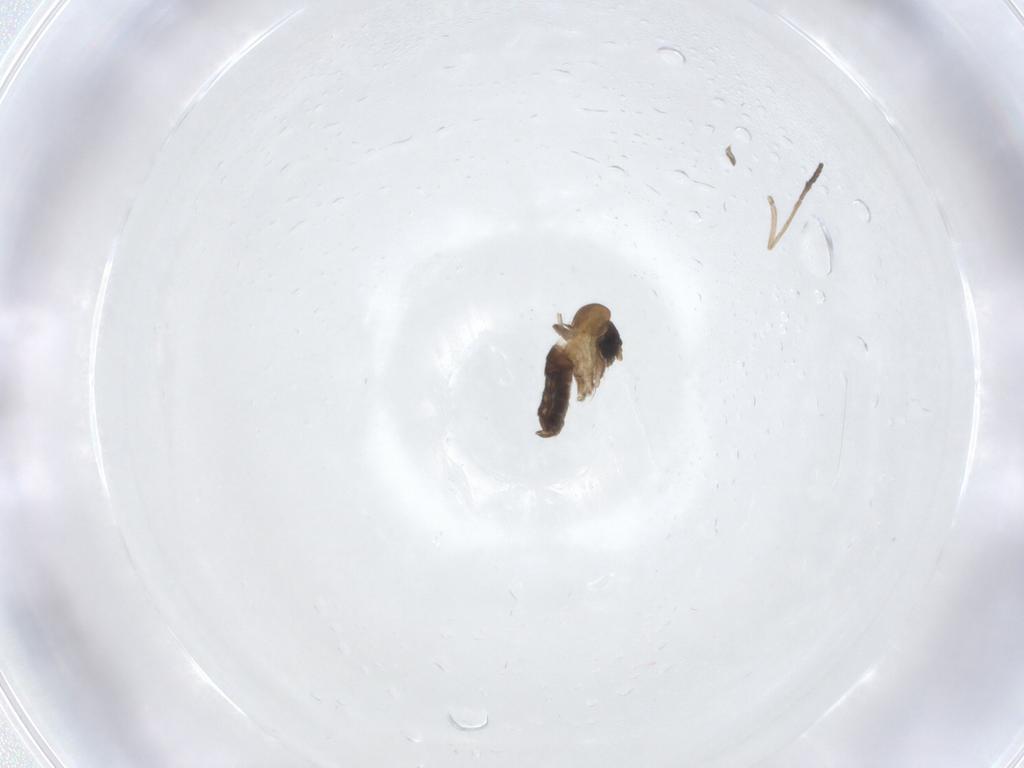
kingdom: Animalia
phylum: Arthropoda
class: Insecta
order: Diptera
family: Psychodidae
